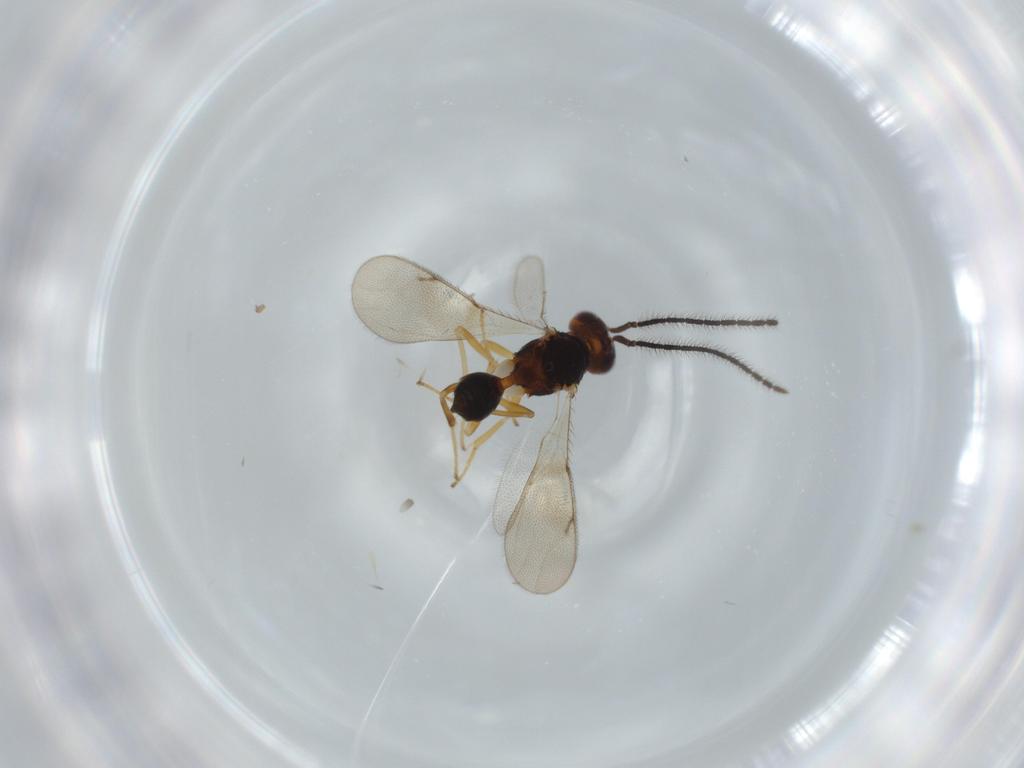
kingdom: Animalia
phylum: Arthropoda
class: Insecta
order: Hymenoptera
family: Diparidae
